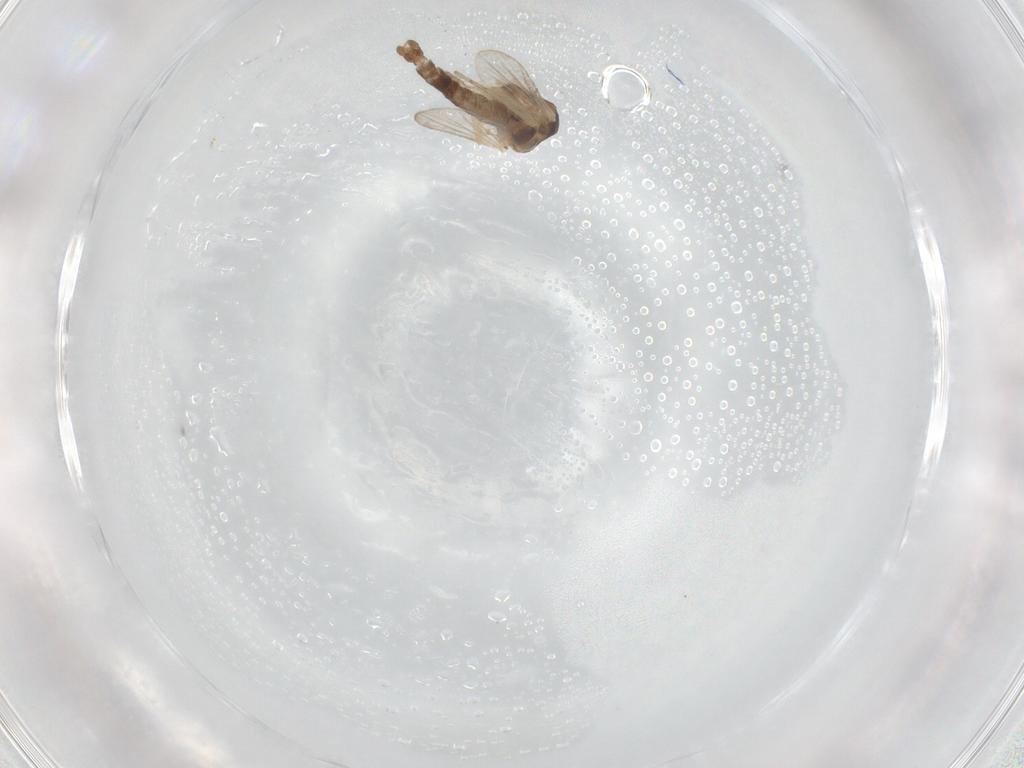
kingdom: Animalia
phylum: Arthropoda
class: Insecta
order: Diptera
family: Ceratopogonidae
